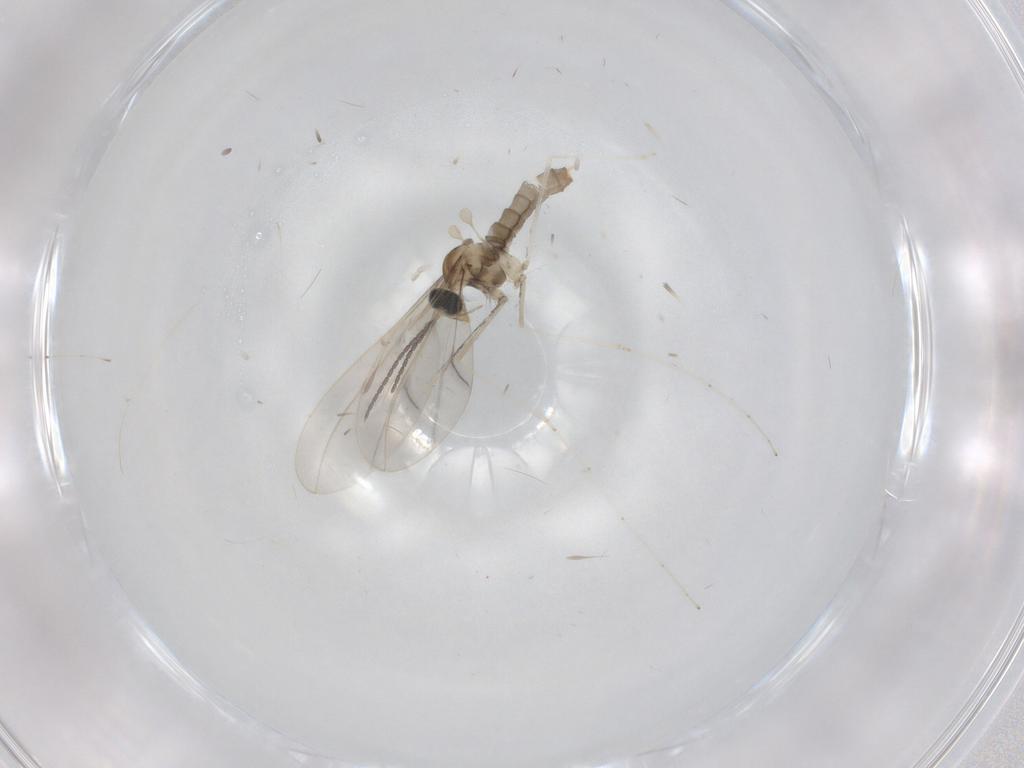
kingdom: Animalia
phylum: Arthropoda
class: Insecta
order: Diptera
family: Cecidomyiidae
